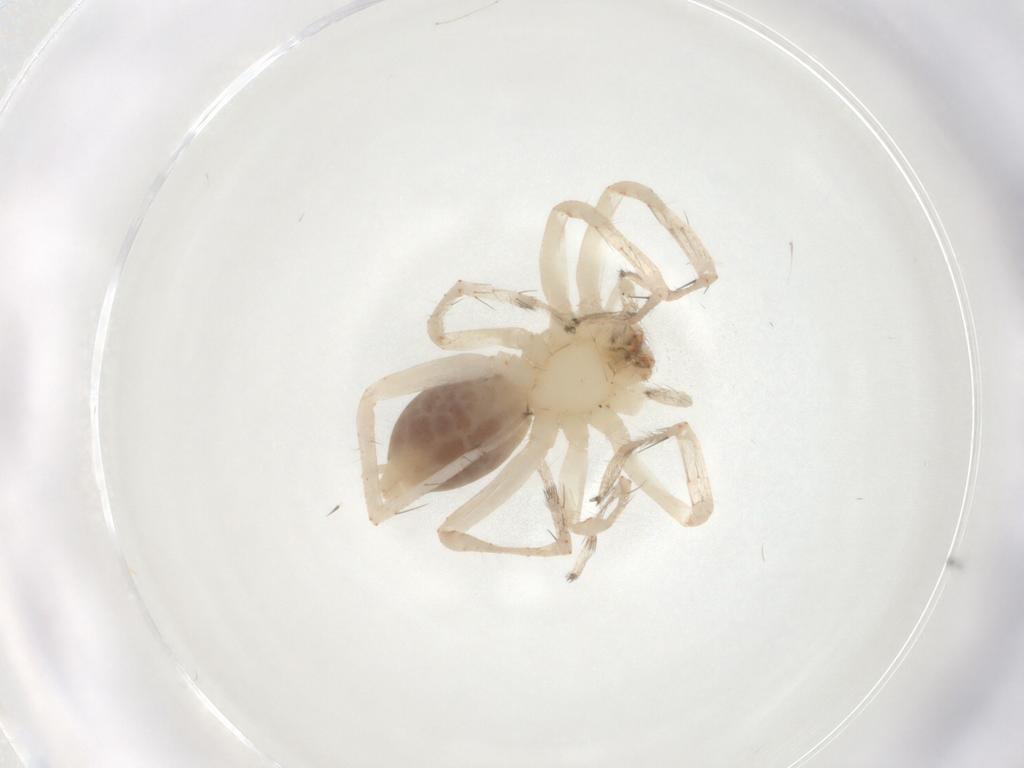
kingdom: Animalia
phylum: Arthropoda
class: Arachnida
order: Araneae
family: Anyphaenidae
